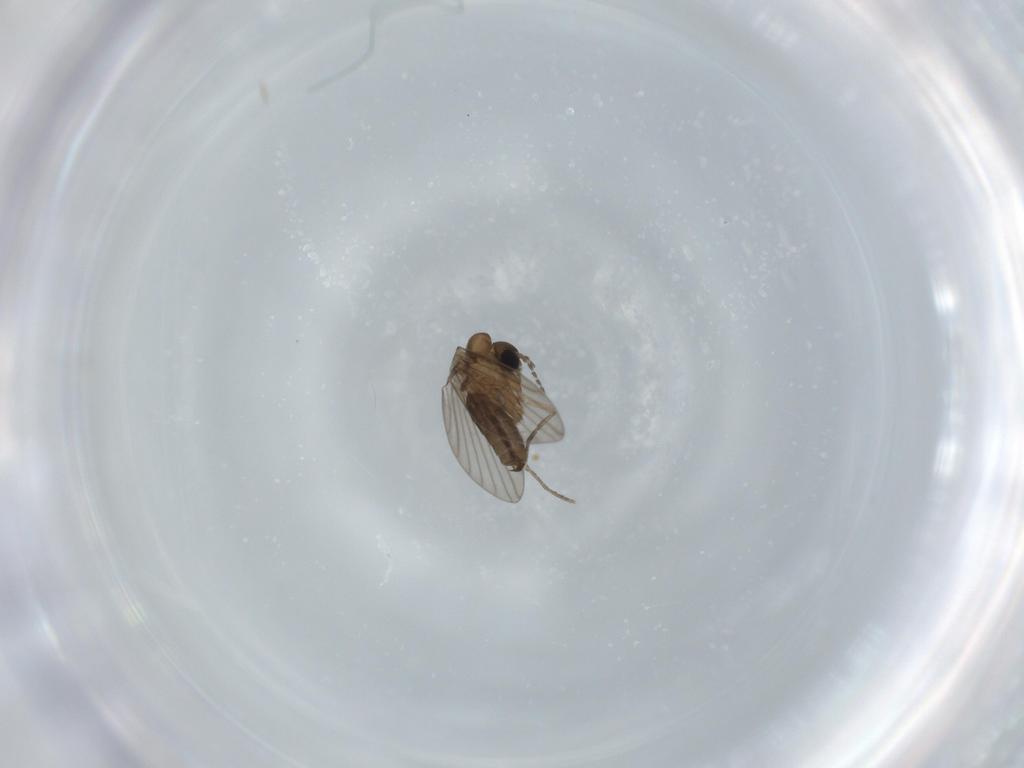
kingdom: Animalia
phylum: Arthropoda
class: Insecta
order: Diptera
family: Psychodidae
